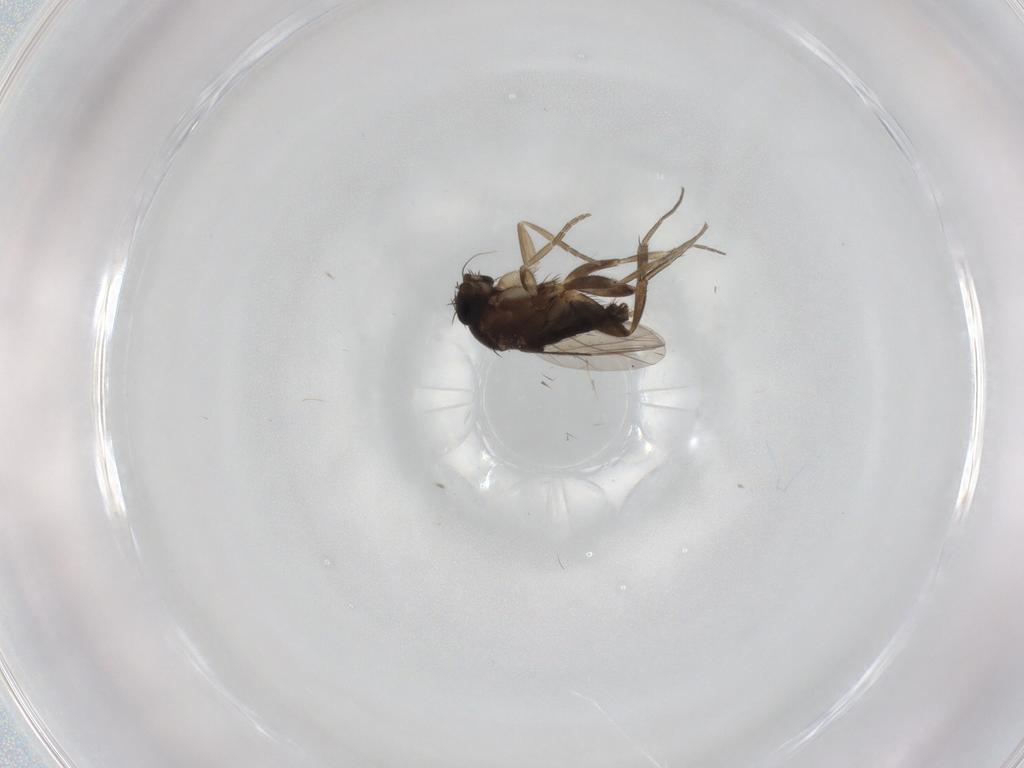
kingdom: Animalia
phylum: Arthropoda
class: Insecta
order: Diptera
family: Phoridae
